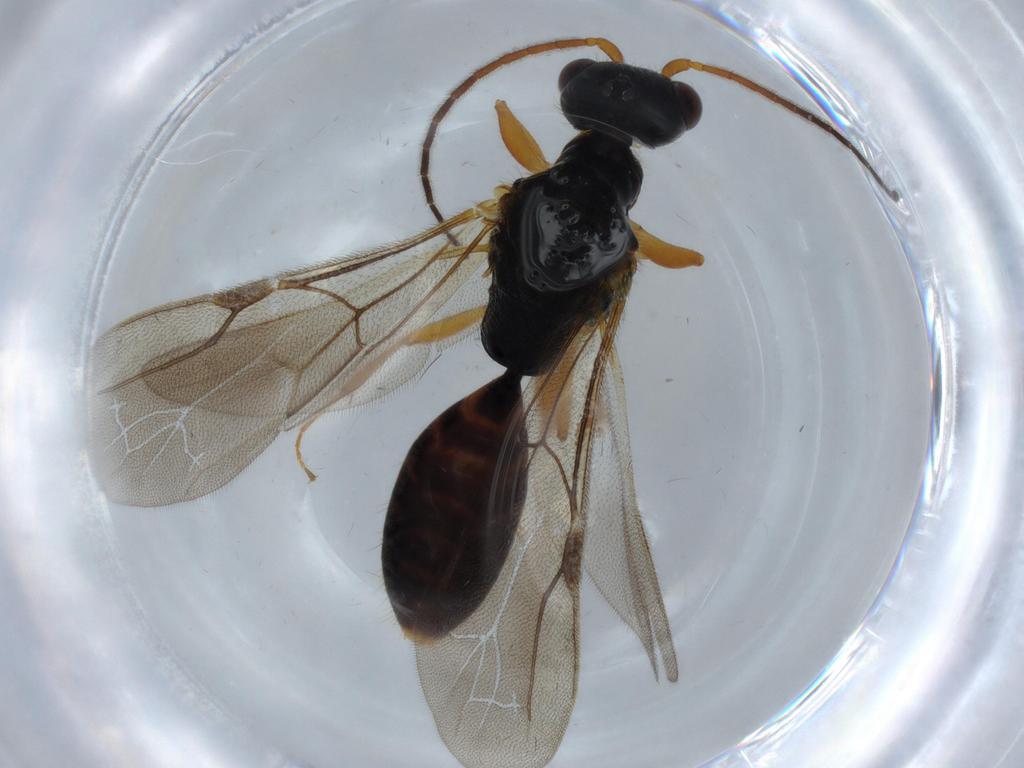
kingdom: Animalia
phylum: Arthropoda
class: Insecta
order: Hymenoptera
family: Bethylidae
